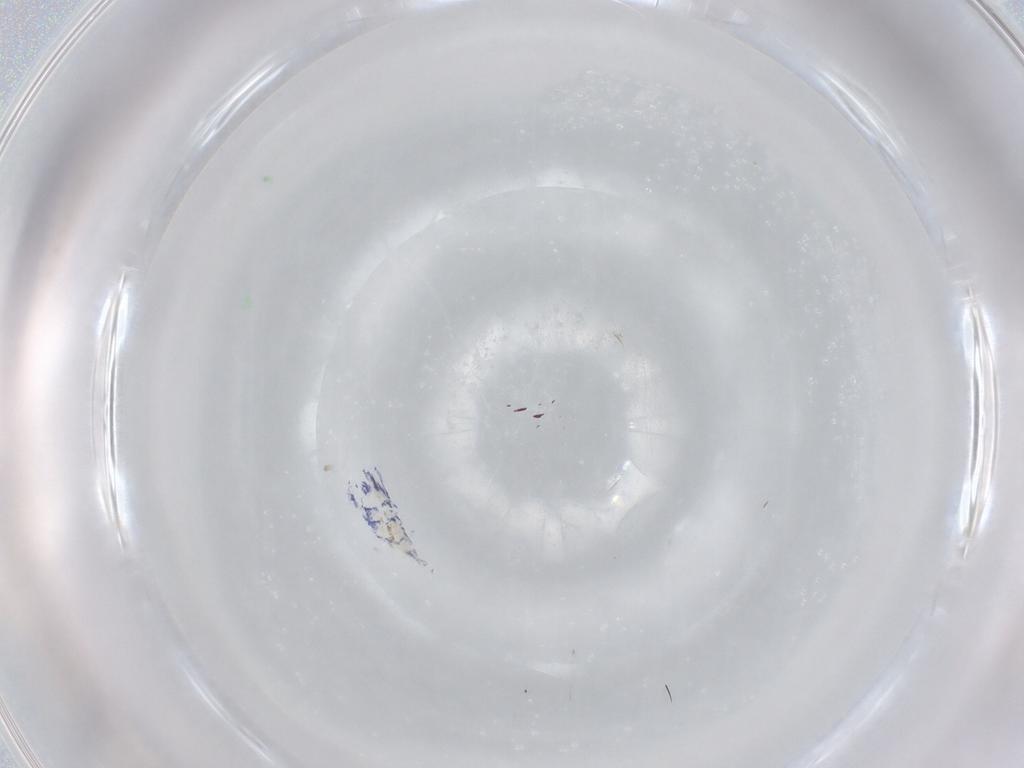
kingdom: Animalia
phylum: Arthropoda
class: Collembola
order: Entomobryomorpha
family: Entomobryidae
